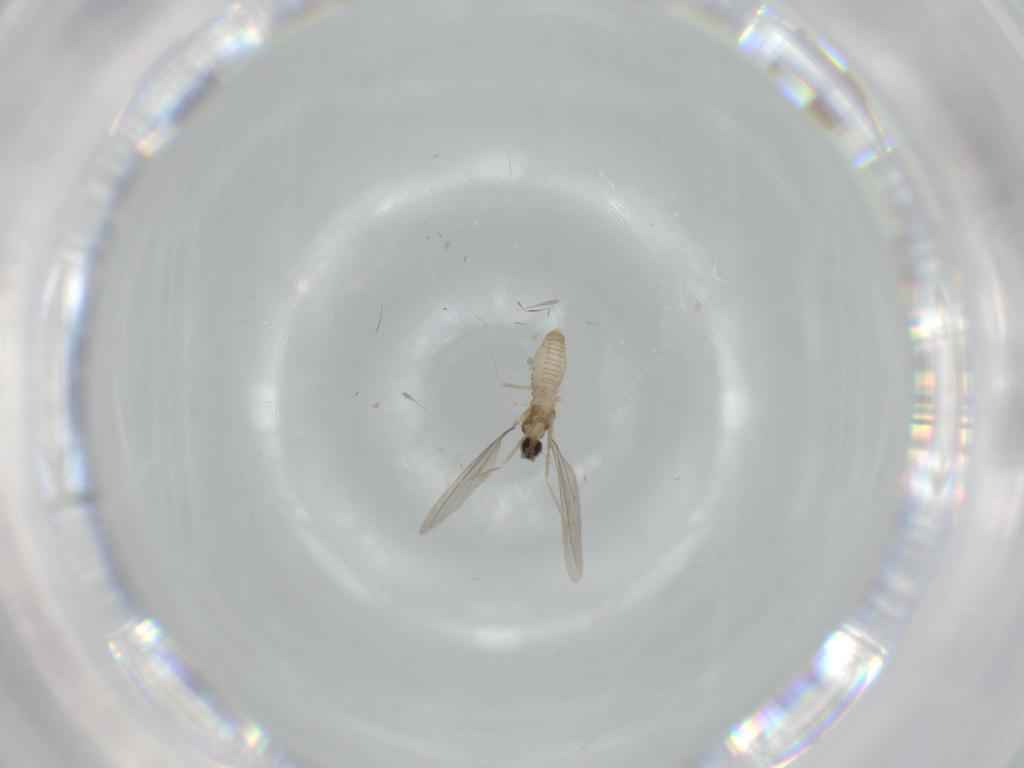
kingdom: Animalia
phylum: Arthropoda
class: Insecta
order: Diptera
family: Cecidomyiidae
